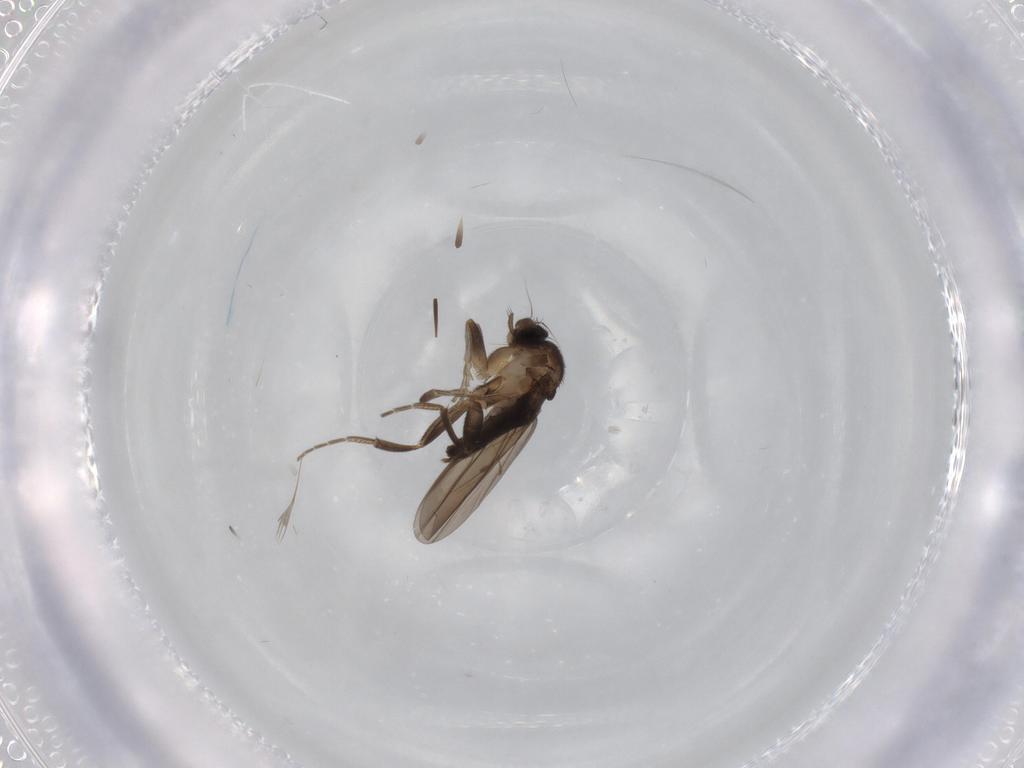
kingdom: Animalia
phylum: Arthropoda
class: Insecta
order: Diptera
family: Phoridae
